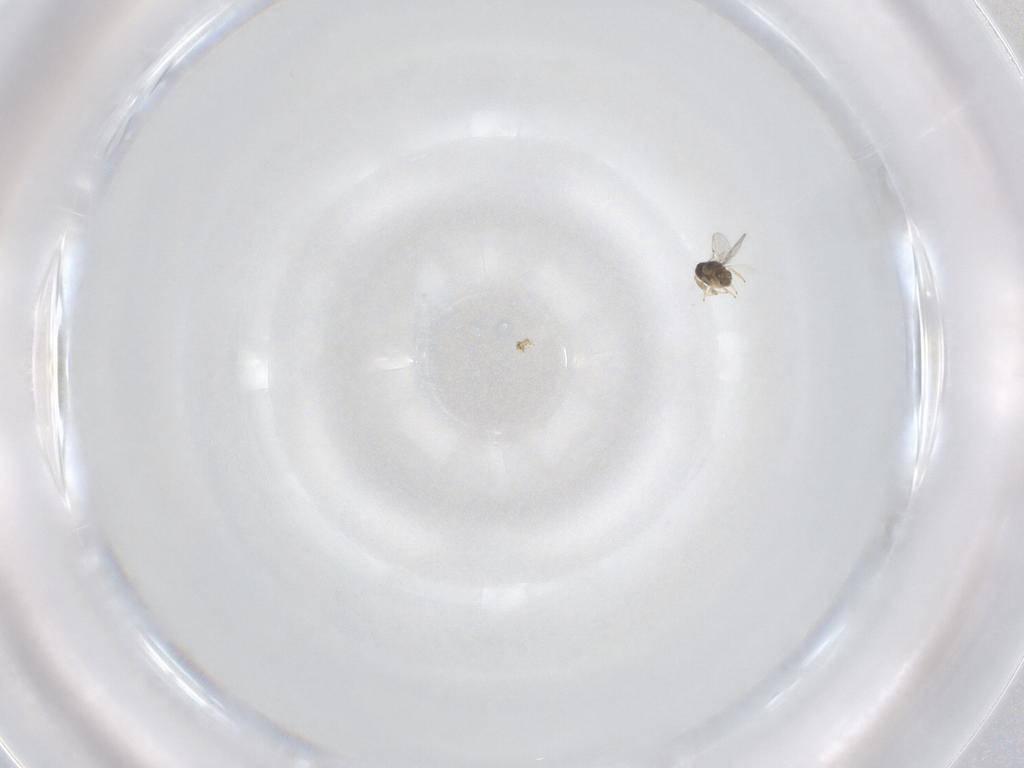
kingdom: Animalia
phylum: Arthropoda
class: Insecta
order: Hymenoptera
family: Encyrtidae
